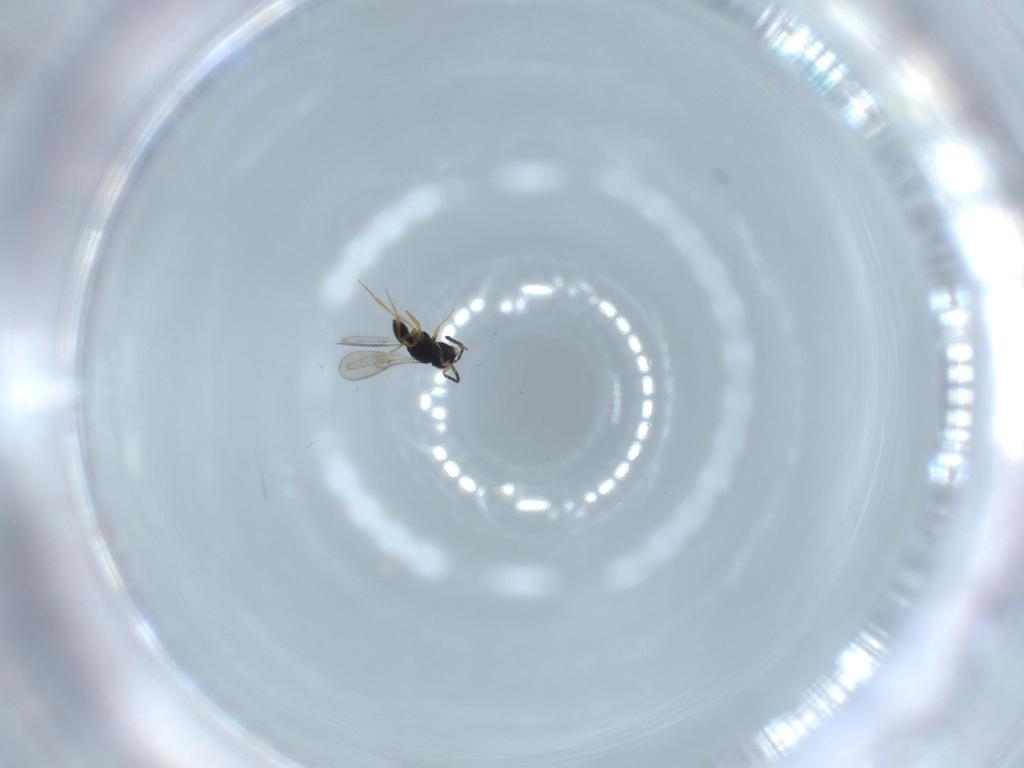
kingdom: Animalia
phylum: Arthropoda
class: Insecta
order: Hymenoptera
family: Scelionidae
